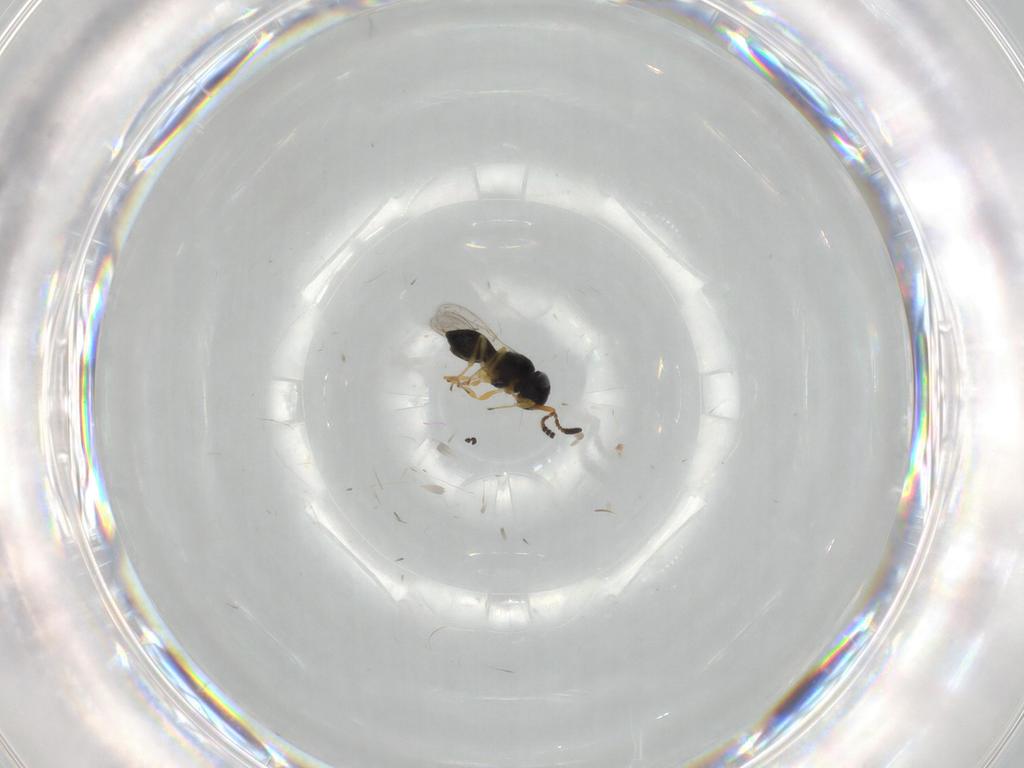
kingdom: Animalia
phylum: Arthropoda
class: Insecta
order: Hymenoptera
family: Scelionidae
